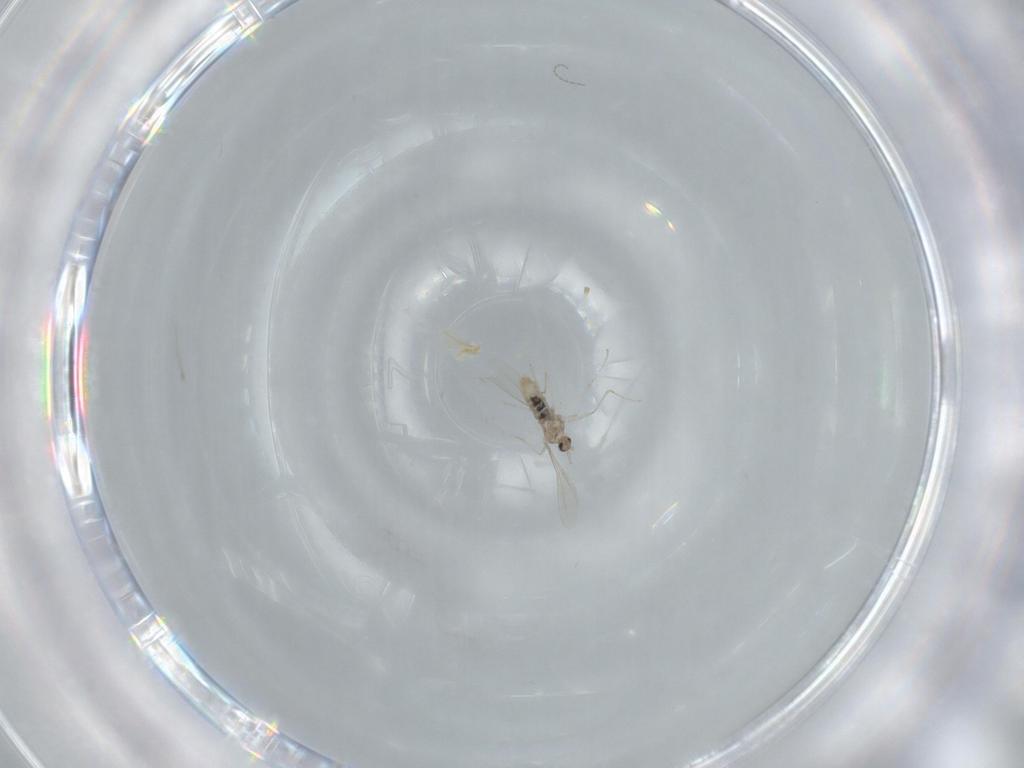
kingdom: Animalia
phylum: Arthropoda
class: Insecta
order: Diptera
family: Cecidomyiidae
